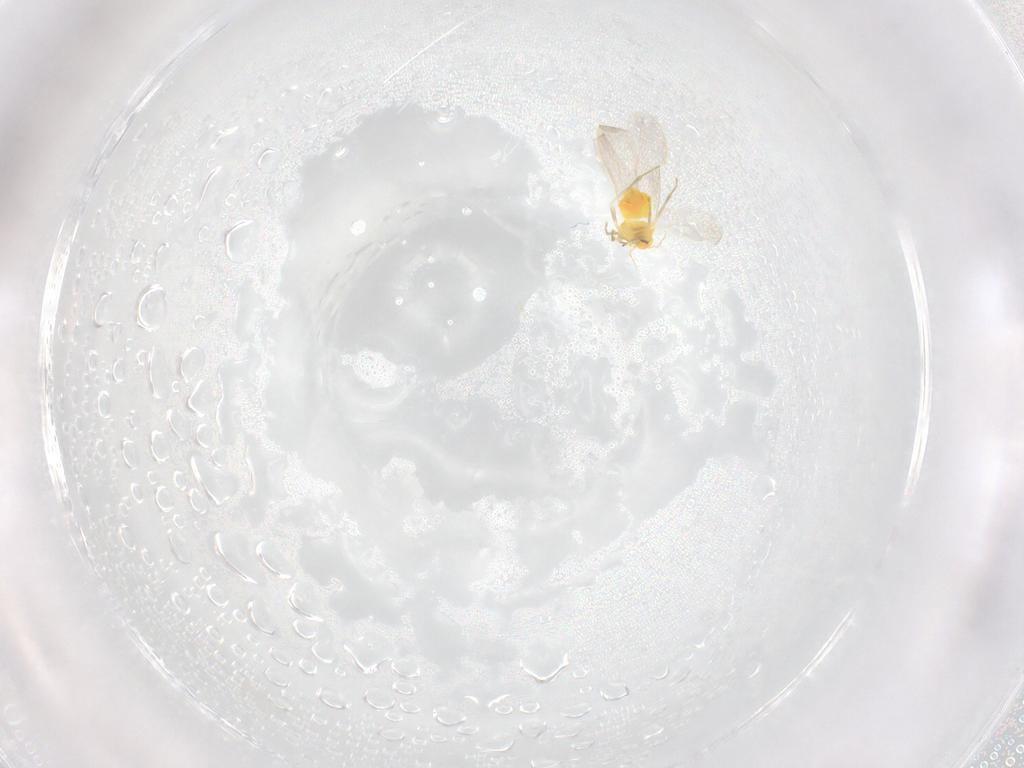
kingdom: Animalia
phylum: Arthropoda
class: Insecta
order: Hemiptera
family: Aleyrodidae
